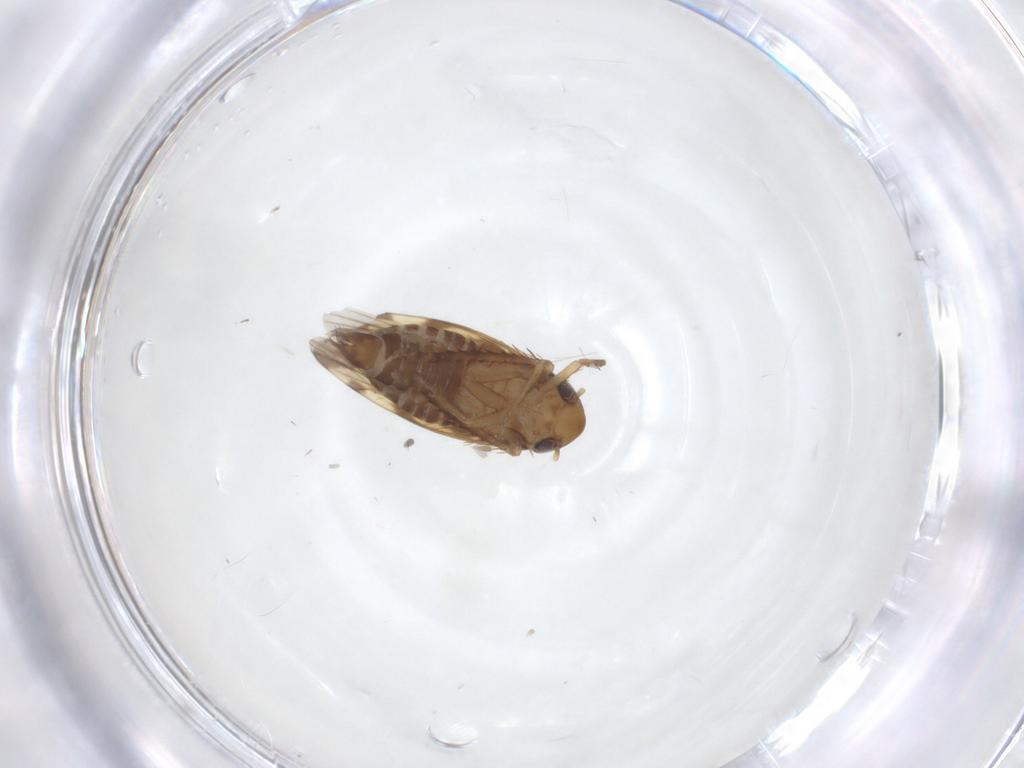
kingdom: Animalia
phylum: Arthropoda
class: Insecta
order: Hemiptera
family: Cicadellidae
